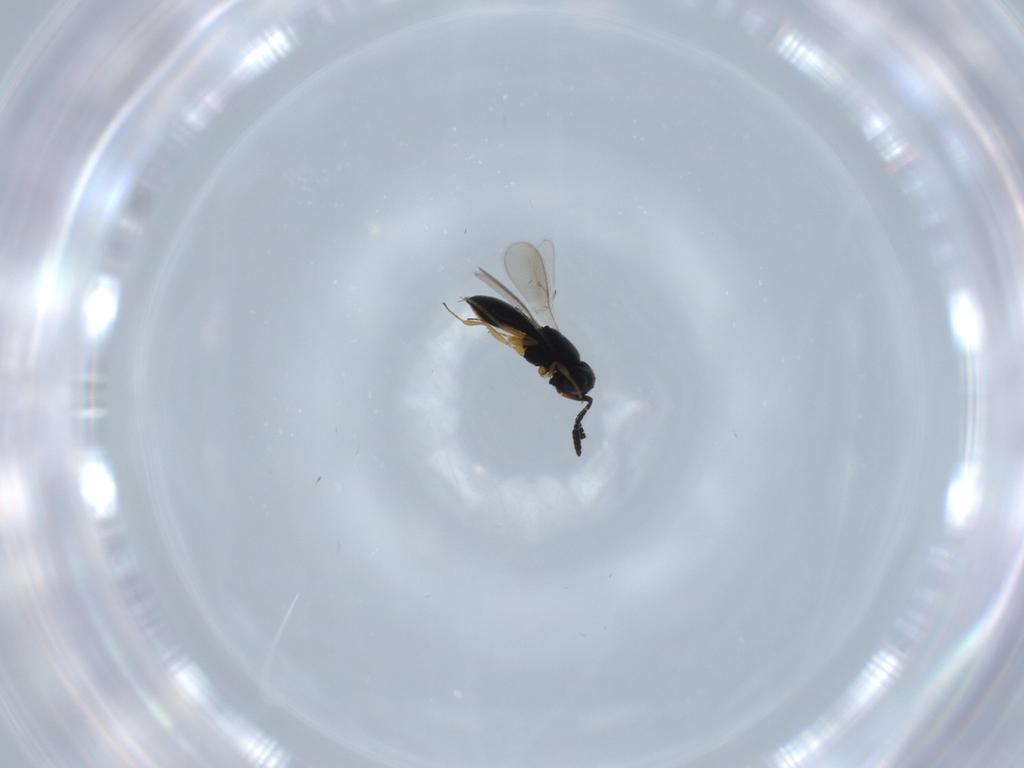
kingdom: Animalia
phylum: Arthropoda
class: Insecta
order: Hymenoptera
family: Scelionidae
